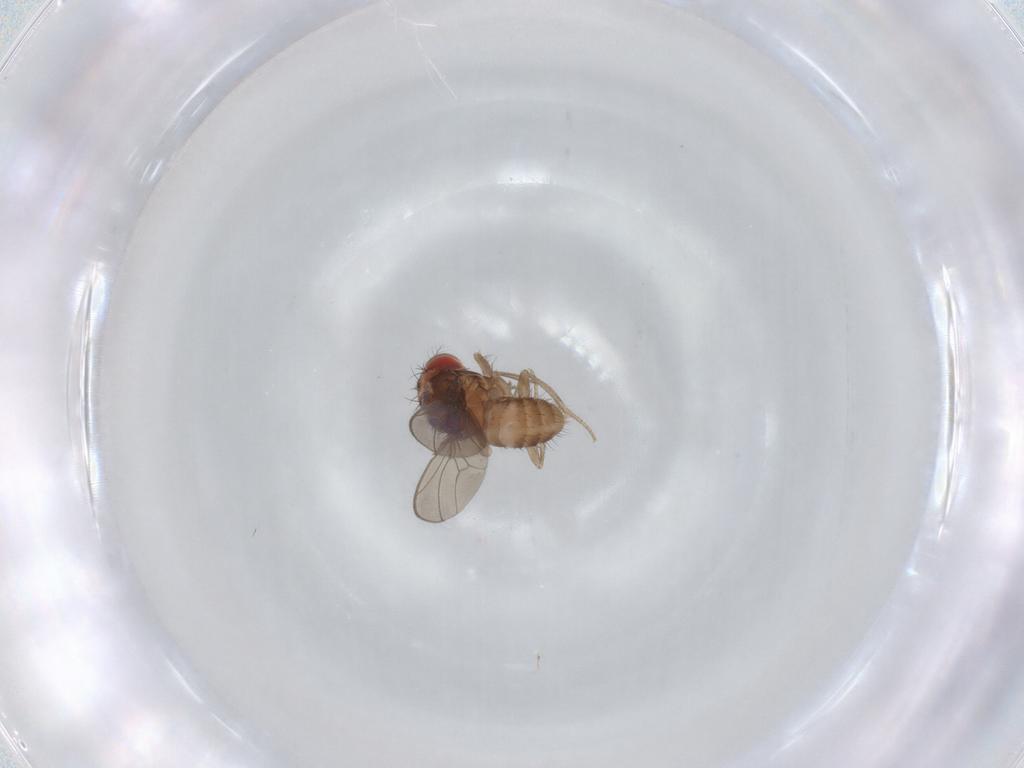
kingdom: Animalia
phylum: Arthropoda
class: Insecta
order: Diptera
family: Drosophilidae
